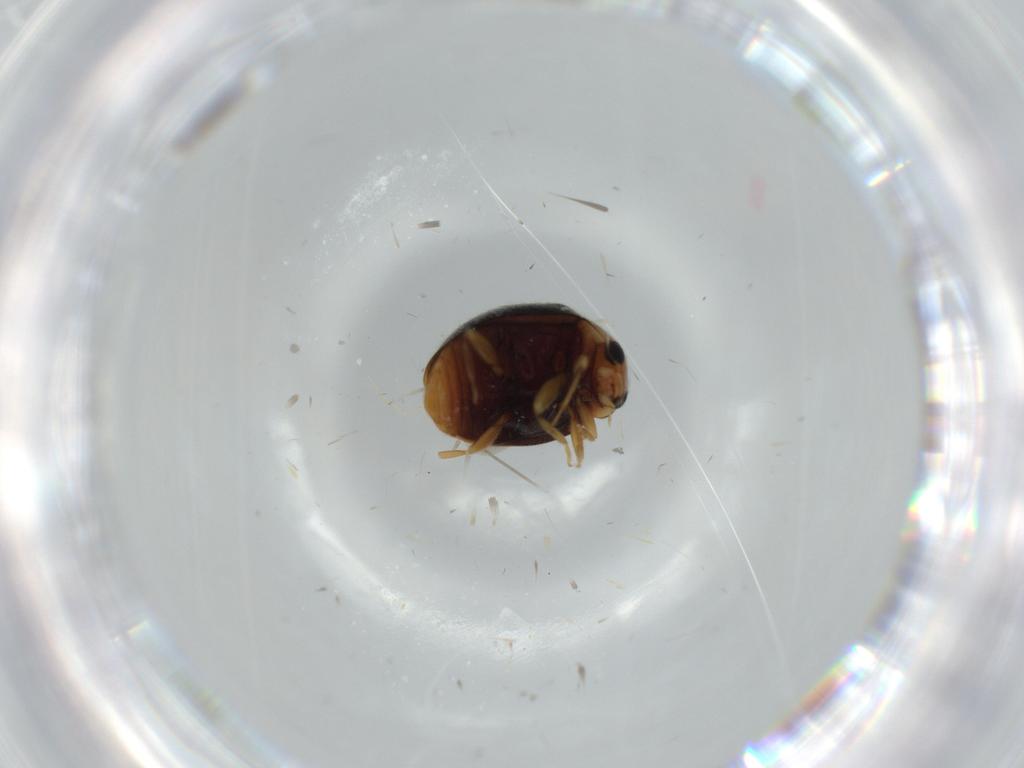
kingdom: Animalia
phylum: Arthropoda
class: Insecta
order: Coleoptera
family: Chrysomelidae
